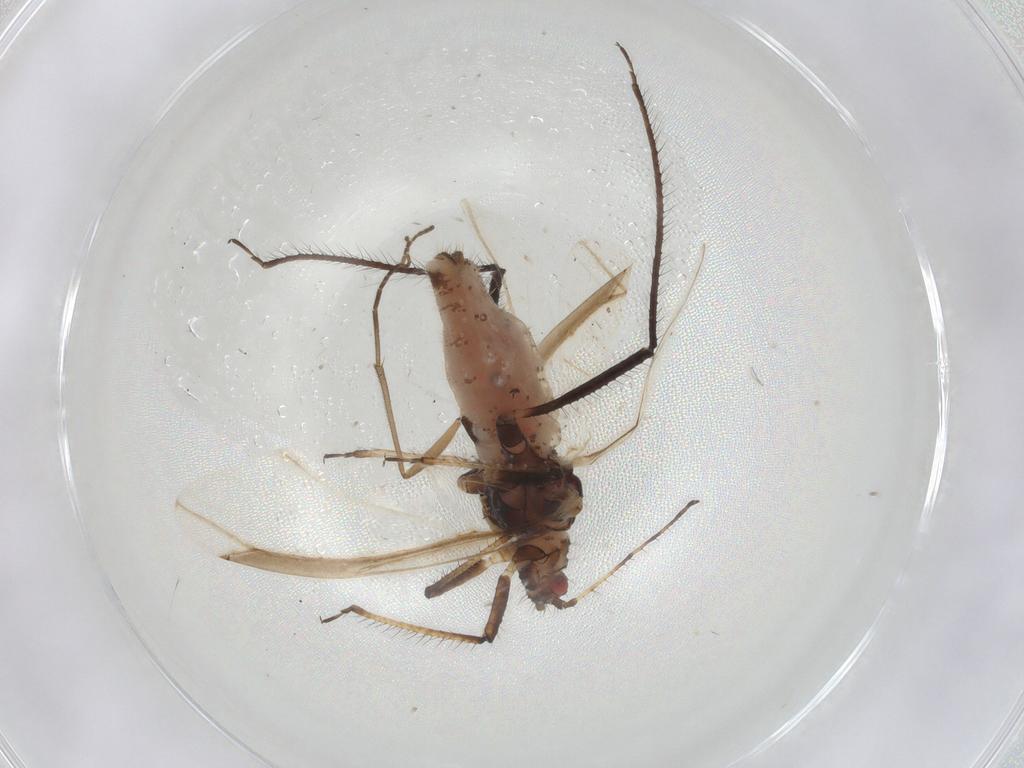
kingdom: Animalia
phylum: Arthropoda
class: Insecta
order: Hemiptera
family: Aphididae
